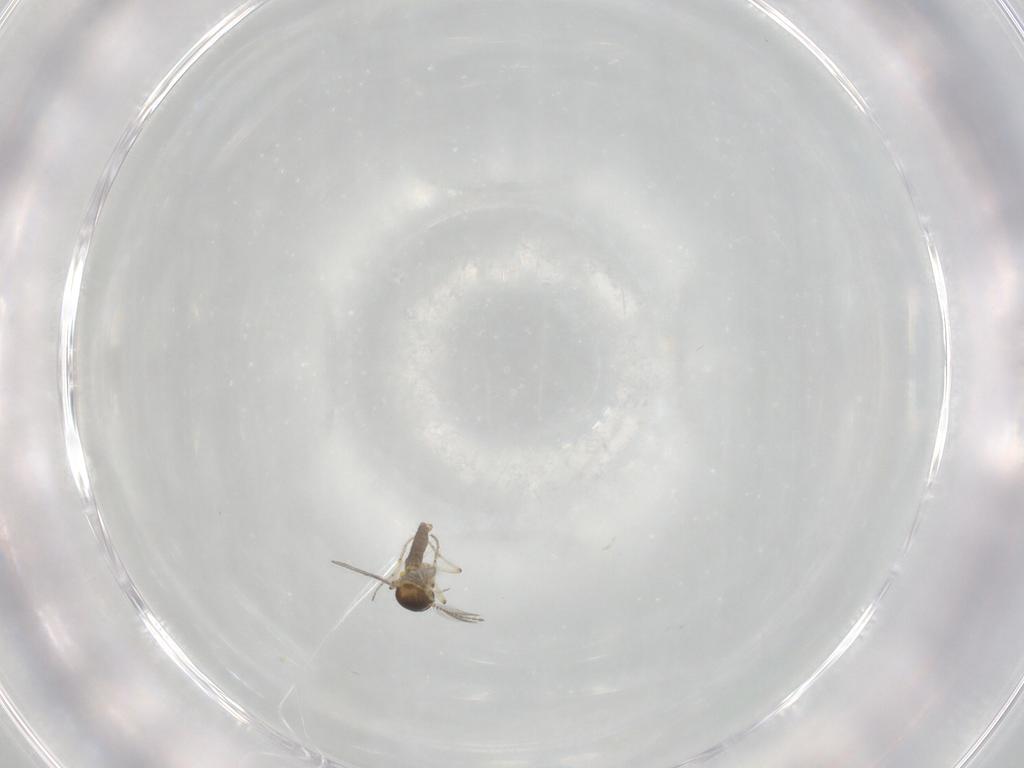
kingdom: Animalia
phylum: Arthropoda
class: Insecta
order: Diptera
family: Ceratopogonidae
